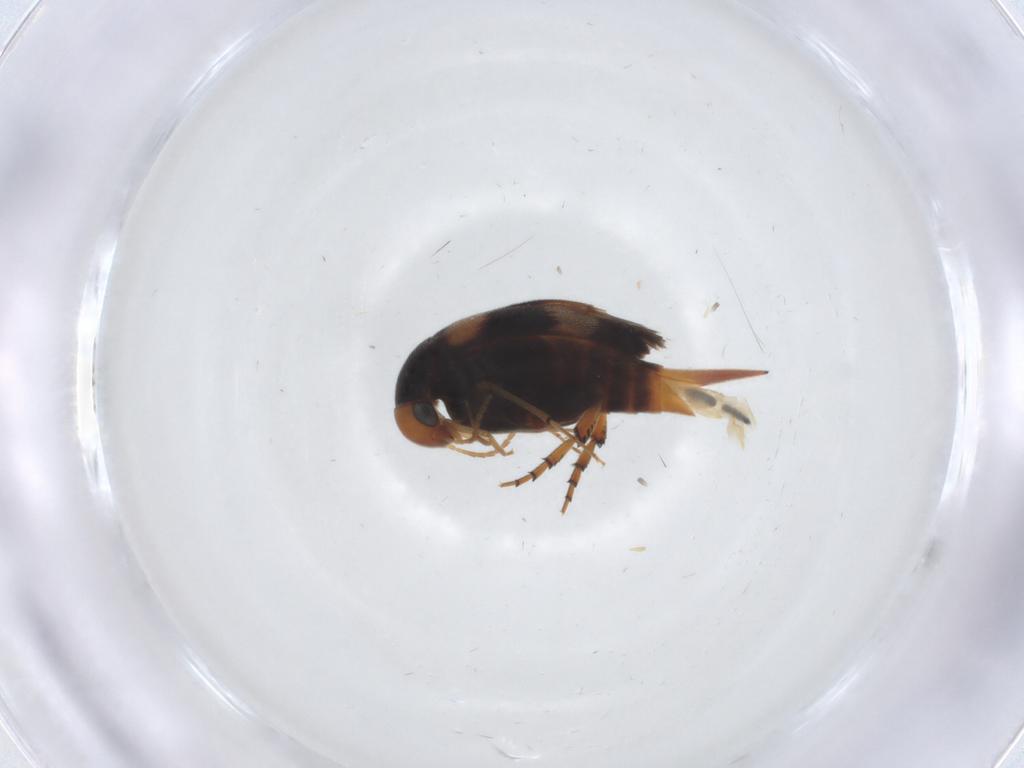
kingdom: Animalia
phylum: Arthropoda
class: Insecta
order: Coleoptera
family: Mordellidae
